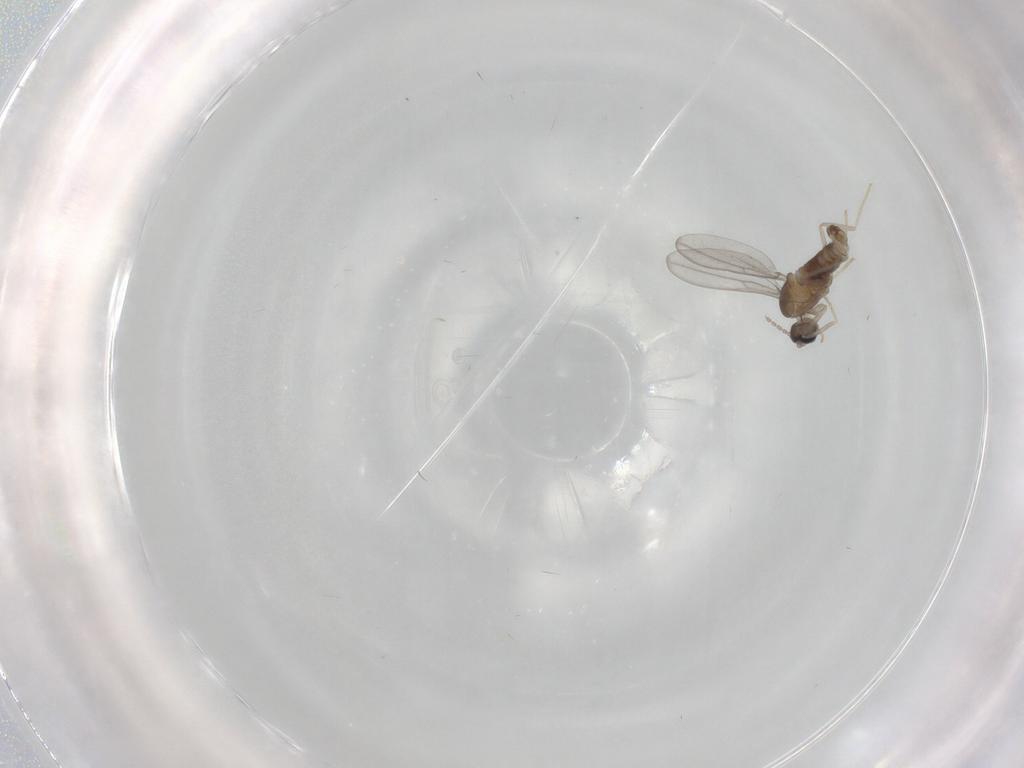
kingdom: Animalia
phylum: Arthropoda
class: Insecta
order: Diptera
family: Cecidomyiidae
